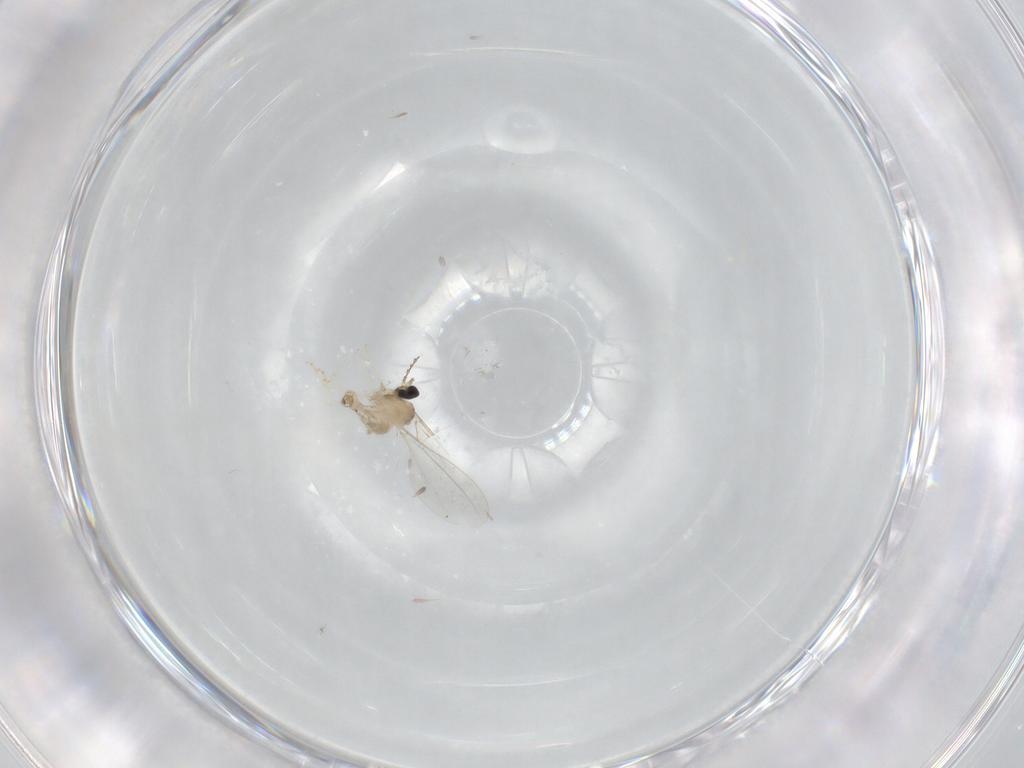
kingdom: Animalia
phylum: Arthropoda
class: Insecta
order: Diptera
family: Cecidomyiidae
